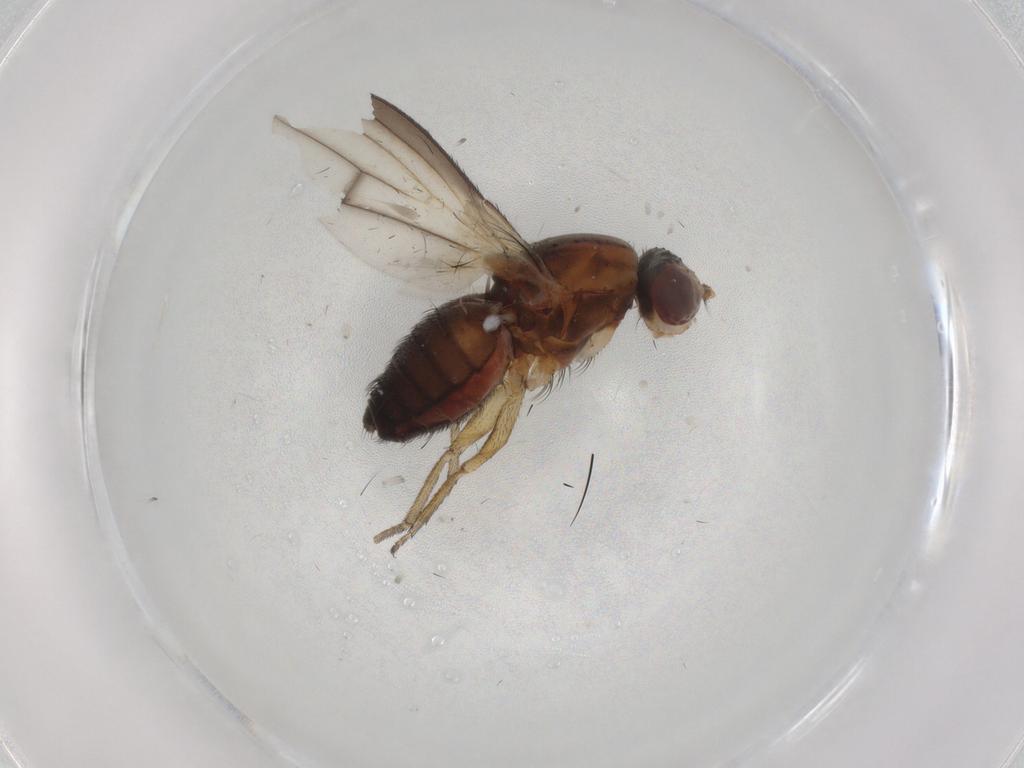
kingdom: Animalia
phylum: Arthropoda
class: Insecta
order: Diptera
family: Heleomyzidae
